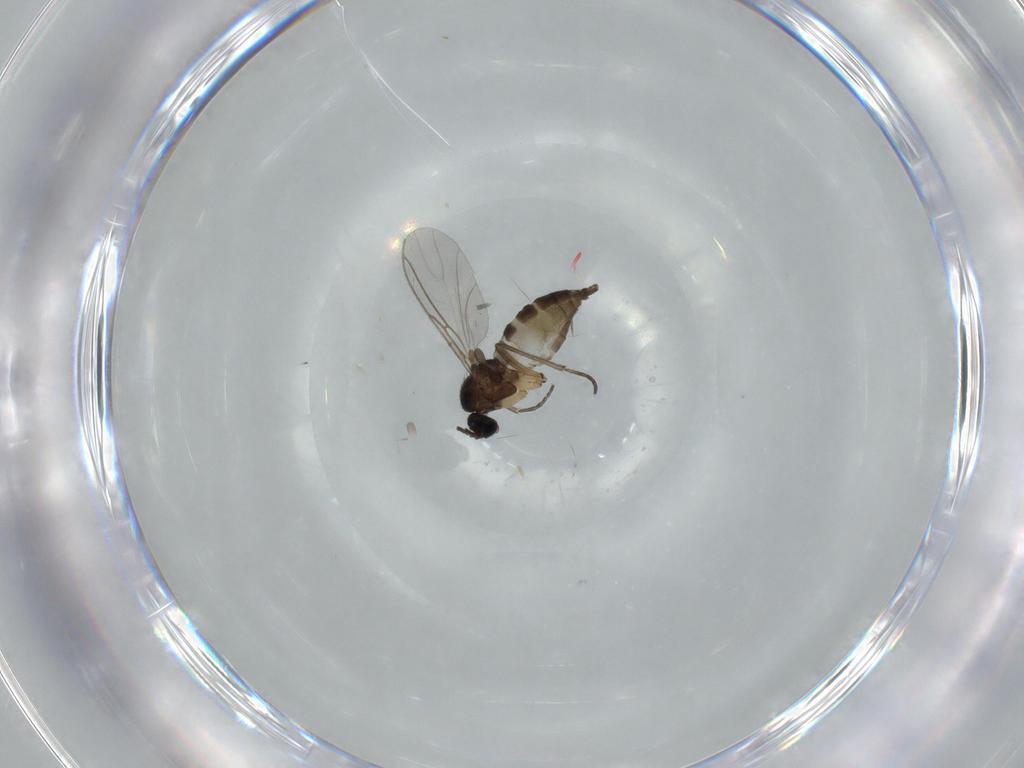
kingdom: Animalia
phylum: Arthropoda
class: Insecta
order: Diptera
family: Sciaridae
